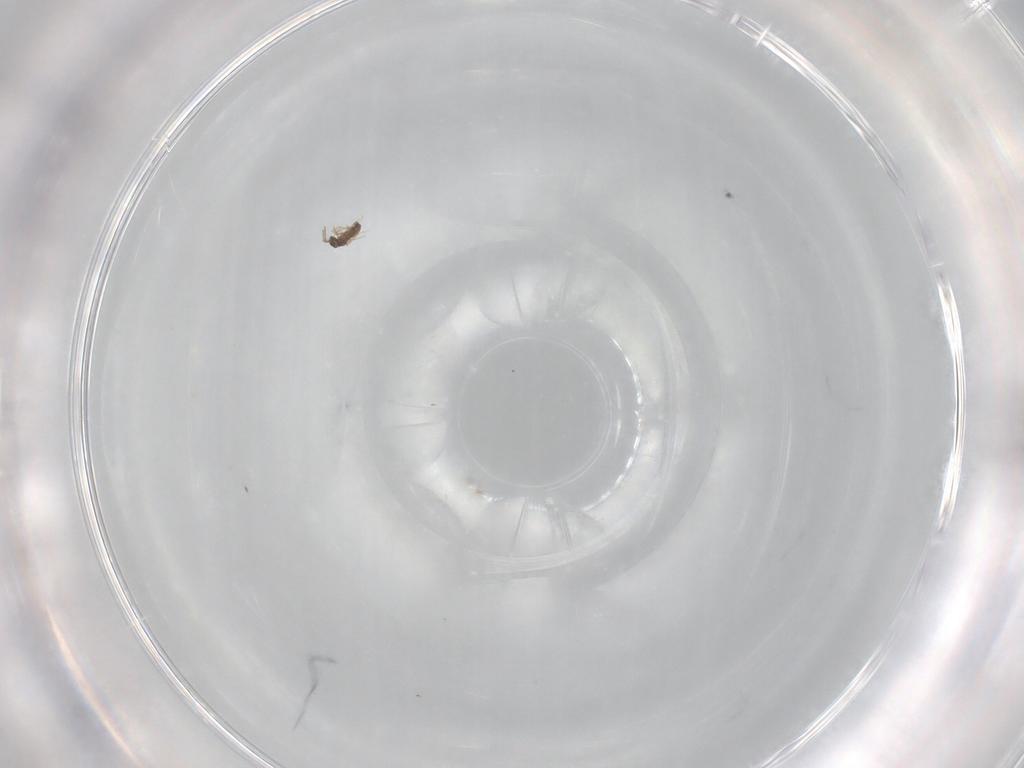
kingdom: Animalia
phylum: Arthropoda
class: Insecta
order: Hymenoptera
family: Mymaridae
